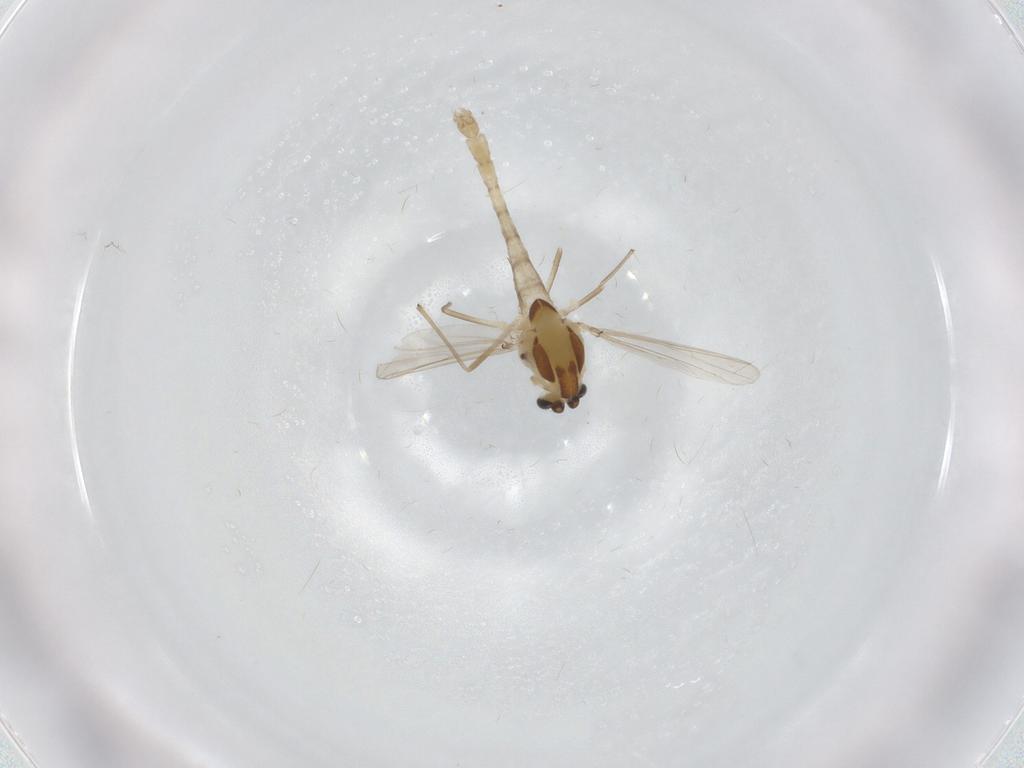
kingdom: Animalia
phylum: Arthropoda
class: Insecta
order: Diptera
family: Chironomidae
